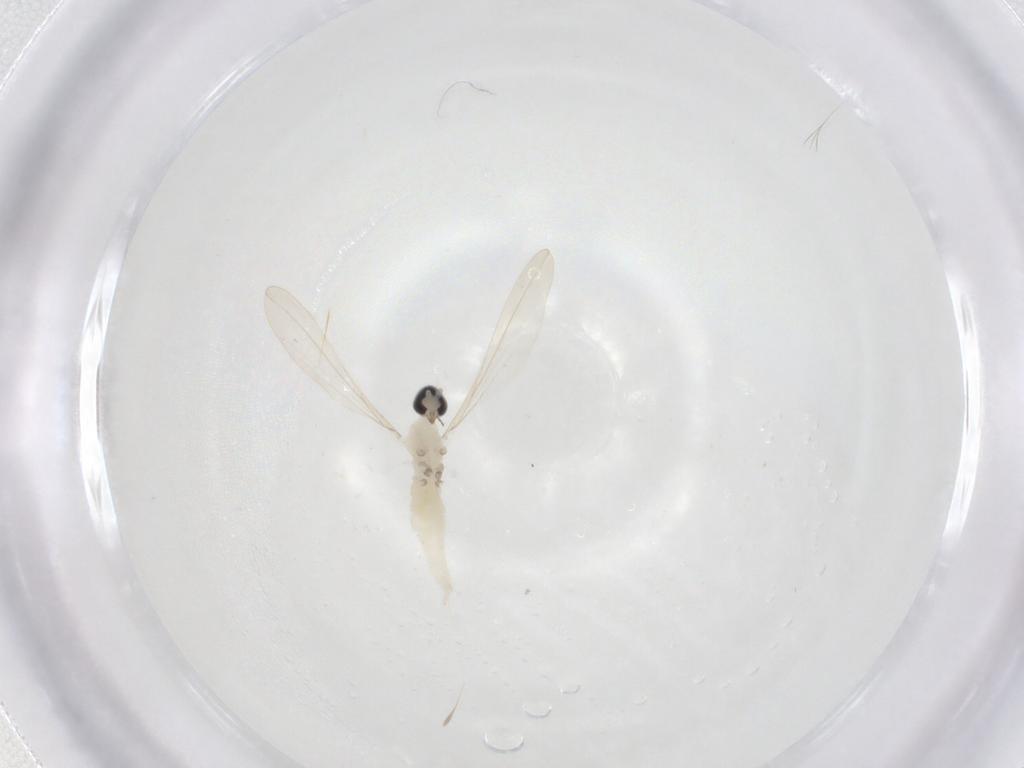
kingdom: Animalia
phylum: Arthropoda
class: Insecta
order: Diptera
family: Cecidomyiidae
